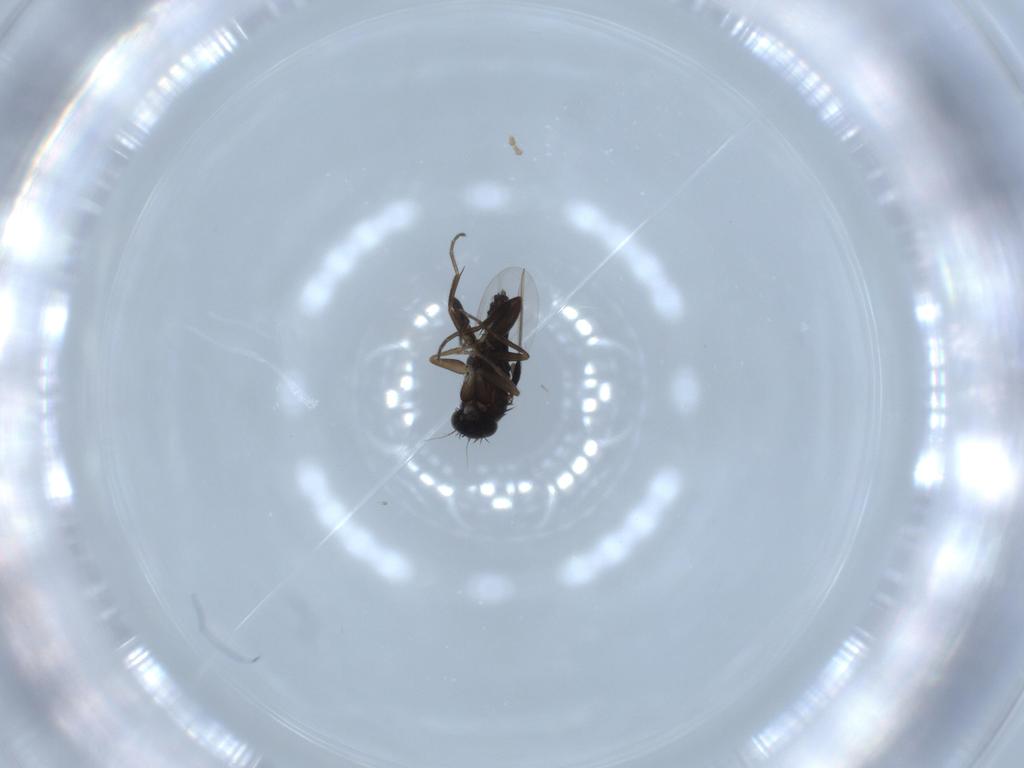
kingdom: Animalia
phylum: Arthropoda
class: Insecta
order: Diptera
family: Phoridae
